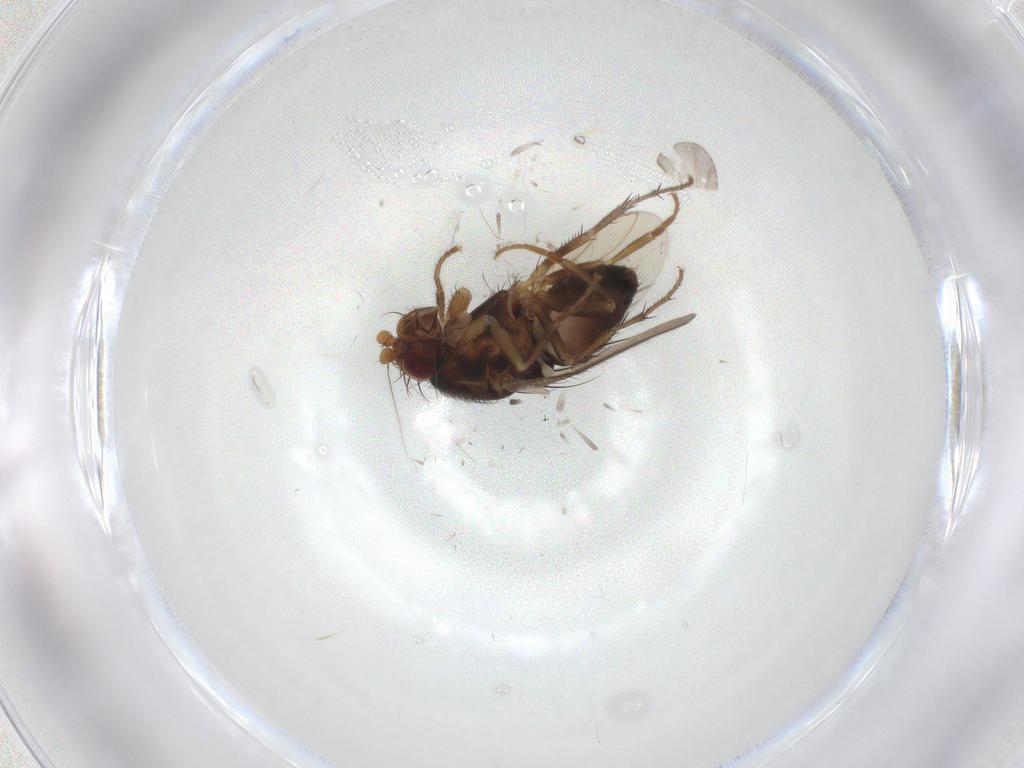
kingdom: Animalia
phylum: Arthropoda
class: Insecta
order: Diptera
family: Sphaeroceridae
